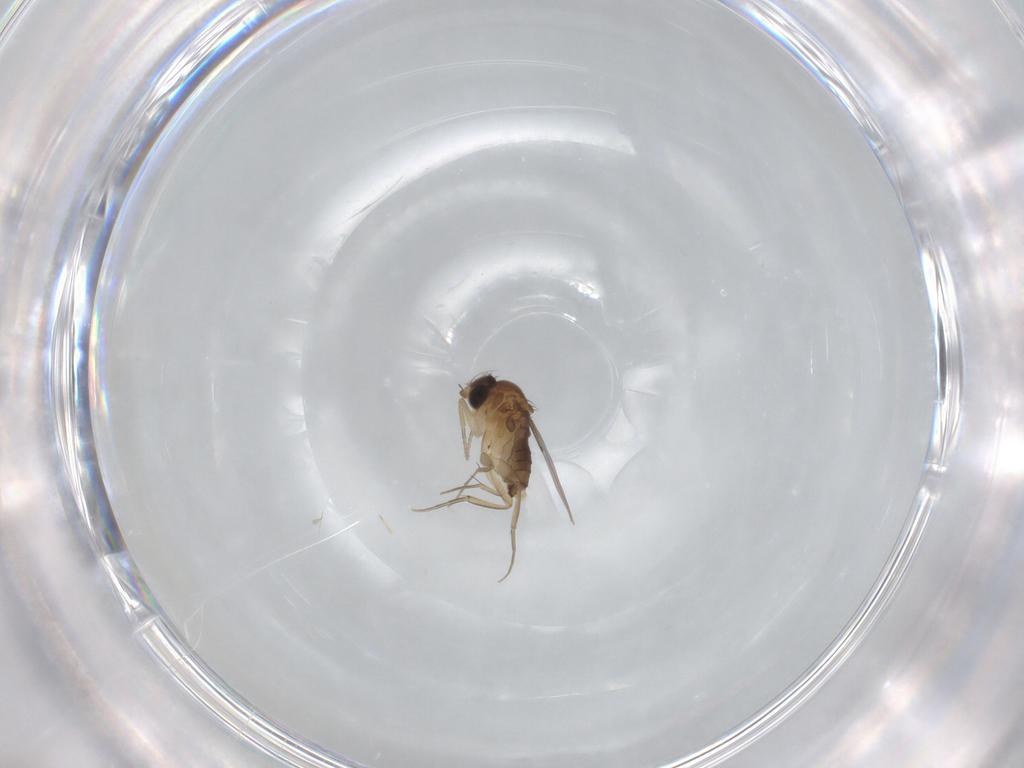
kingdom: Animalia
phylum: Arthropoda
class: Insecta
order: Diptera
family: Phoridae
